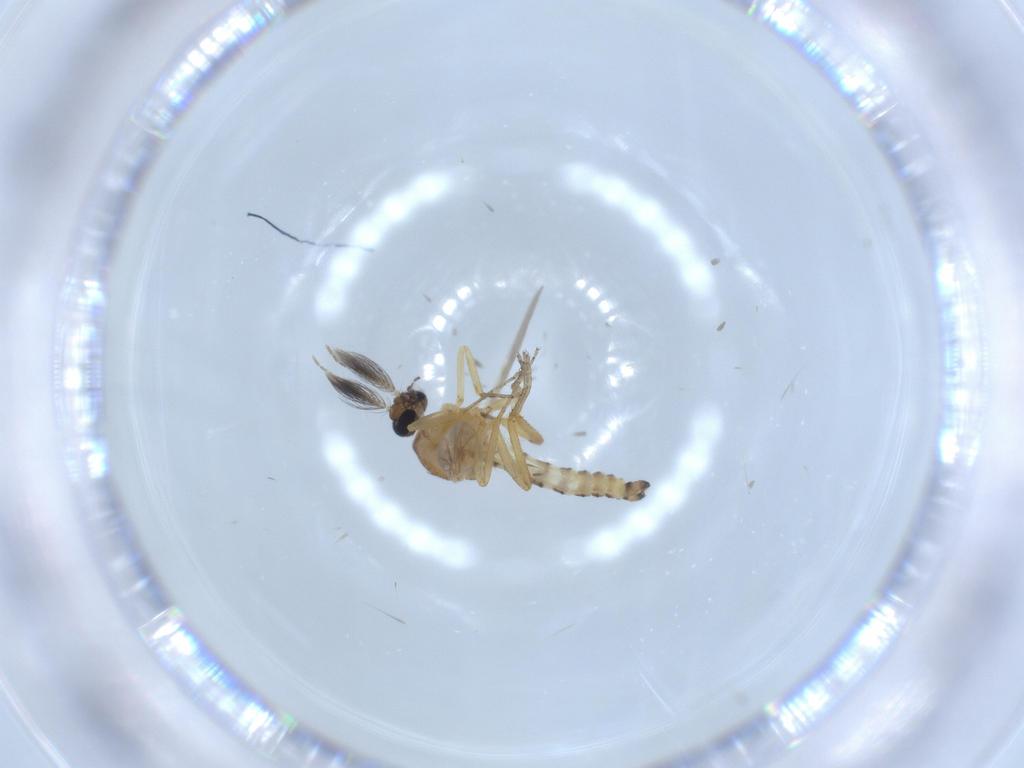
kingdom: Animalia
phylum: Arthropoda
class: Insecta
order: Diptera
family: Ceratopogonidae
